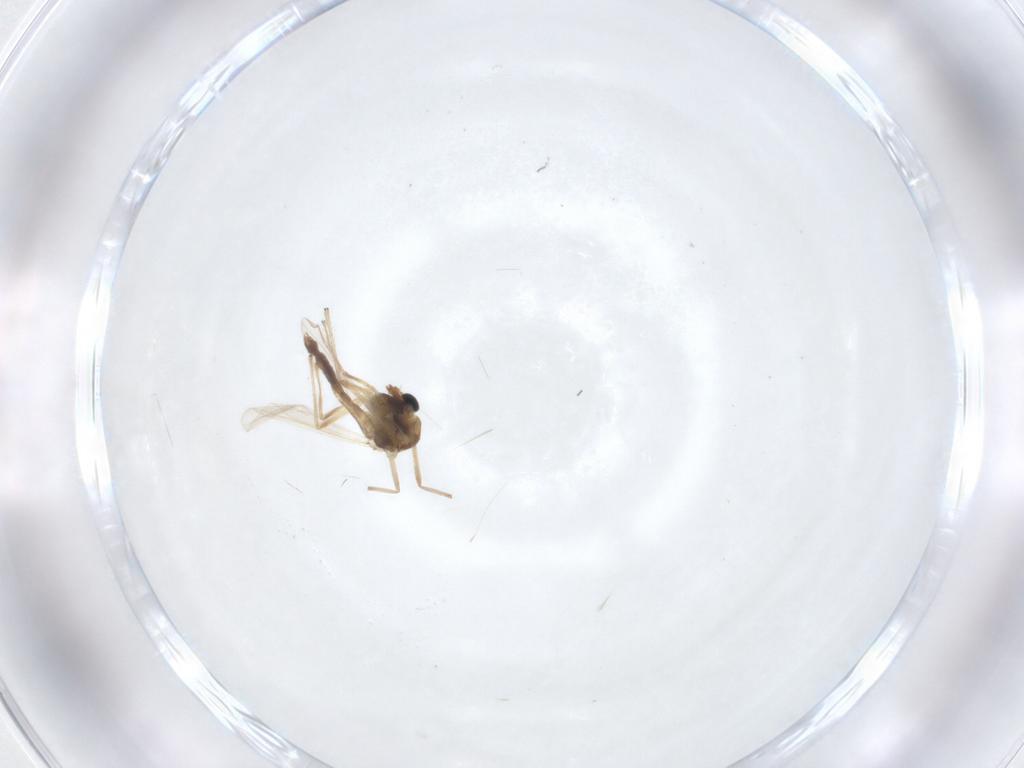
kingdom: Animalia
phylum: Arthropoda
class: Insecta
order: Diptera
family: Chironomidae
